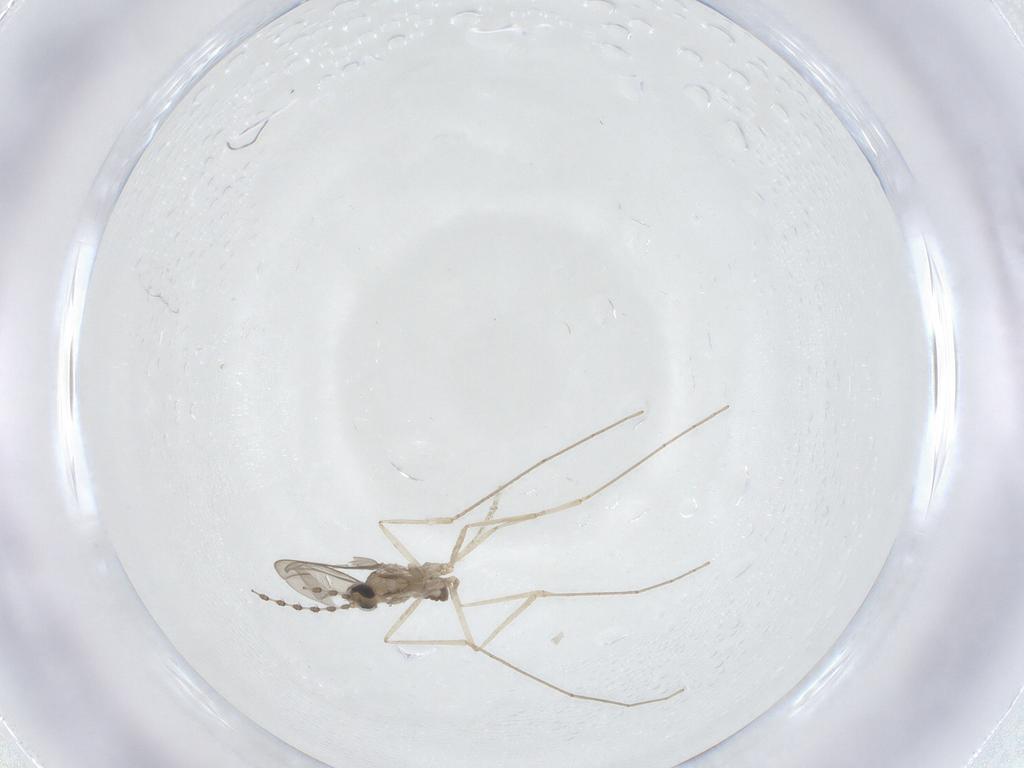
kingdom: Animalia
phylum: Arthropoda
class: Insecta
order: Diptera
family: Cecidomyiidae
